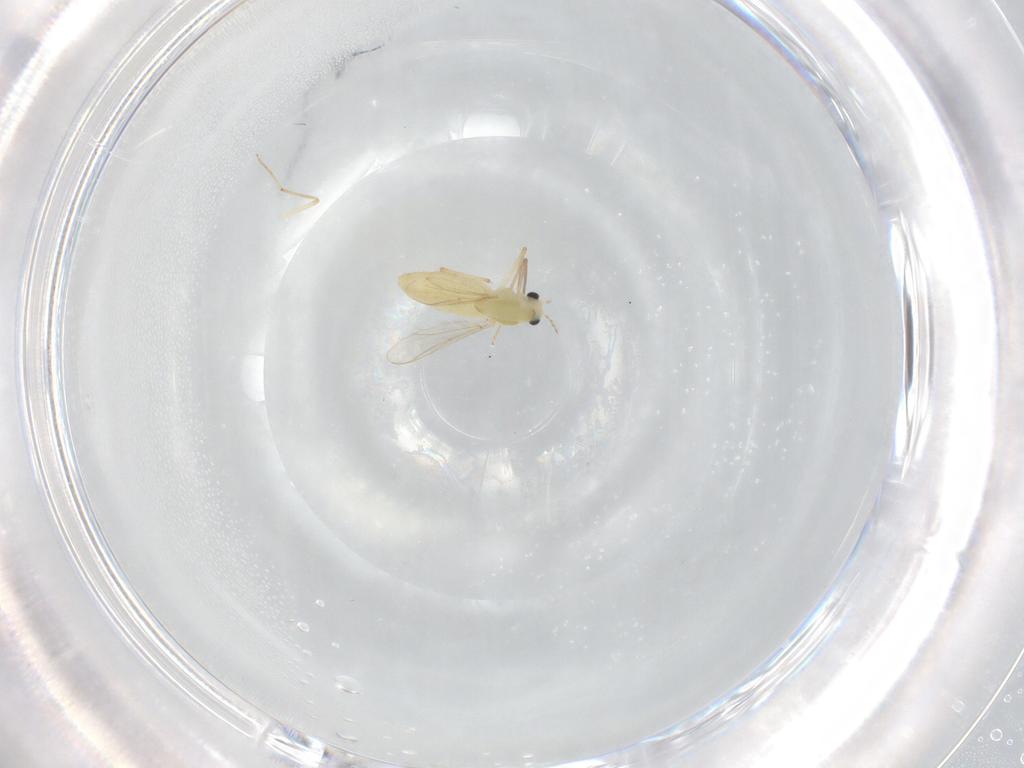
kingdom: Animalia
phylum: Arthropoda
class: Insecta
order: Diptera
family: Chironomidae
